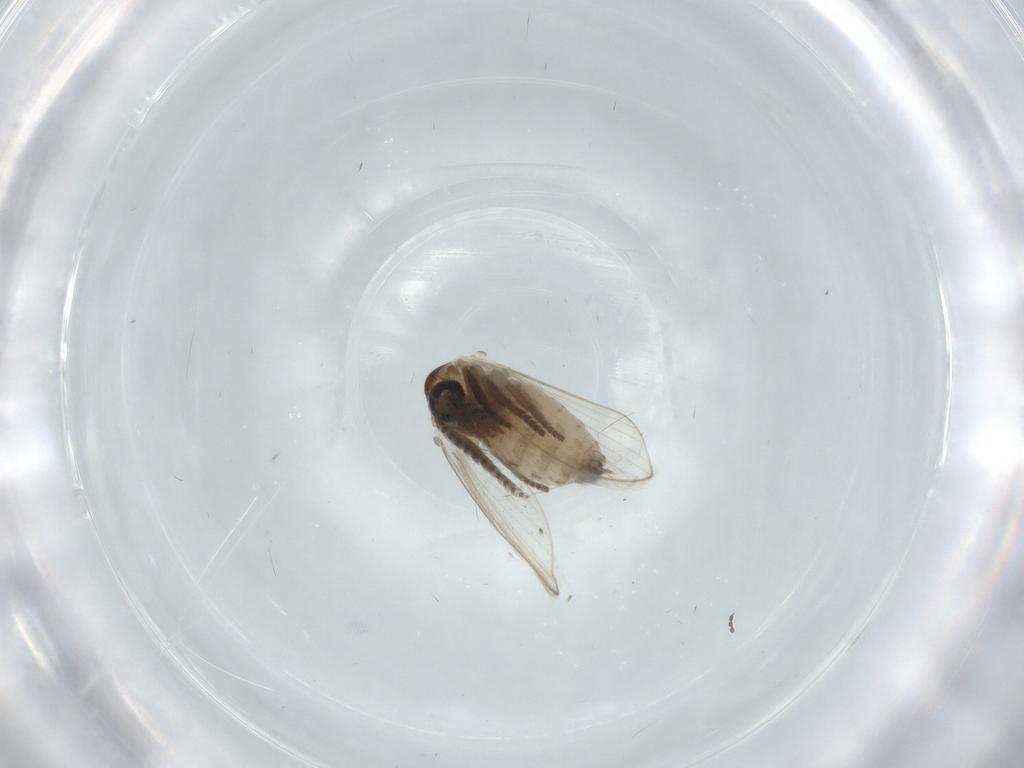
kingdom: Animalia
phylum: Arthropoda
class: Insecta
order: Diptera
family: Psychodidae
